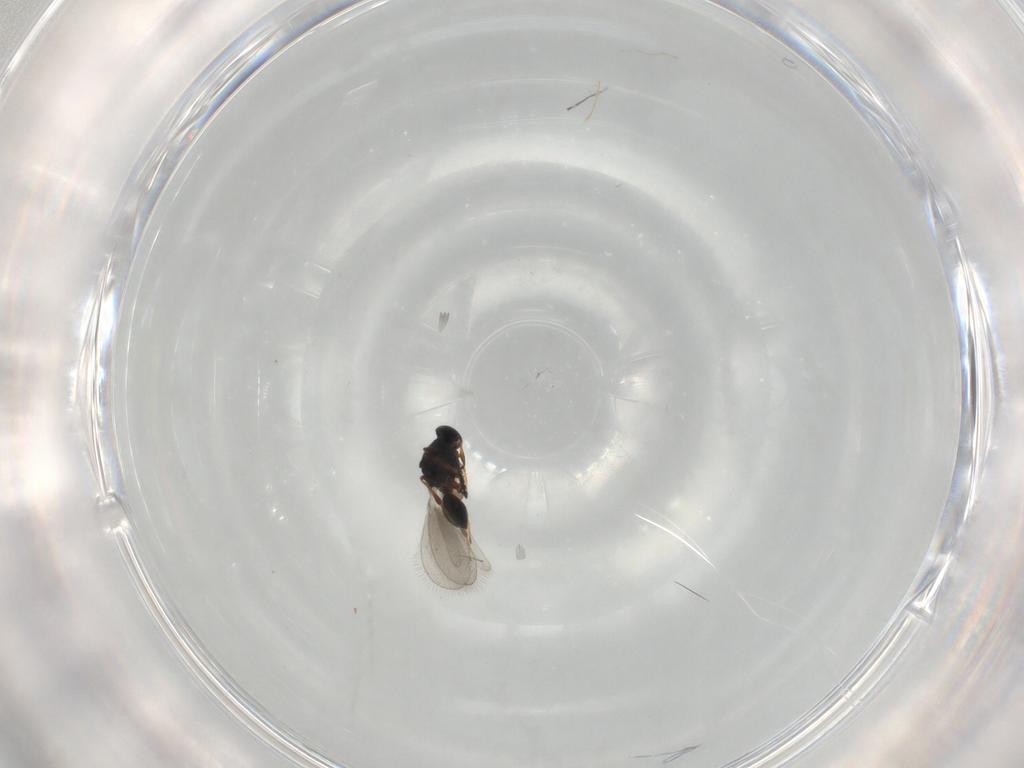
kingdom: Animalia
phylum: Arthropoda
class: Insecta
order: Hymenoptera
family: Platygastridae
